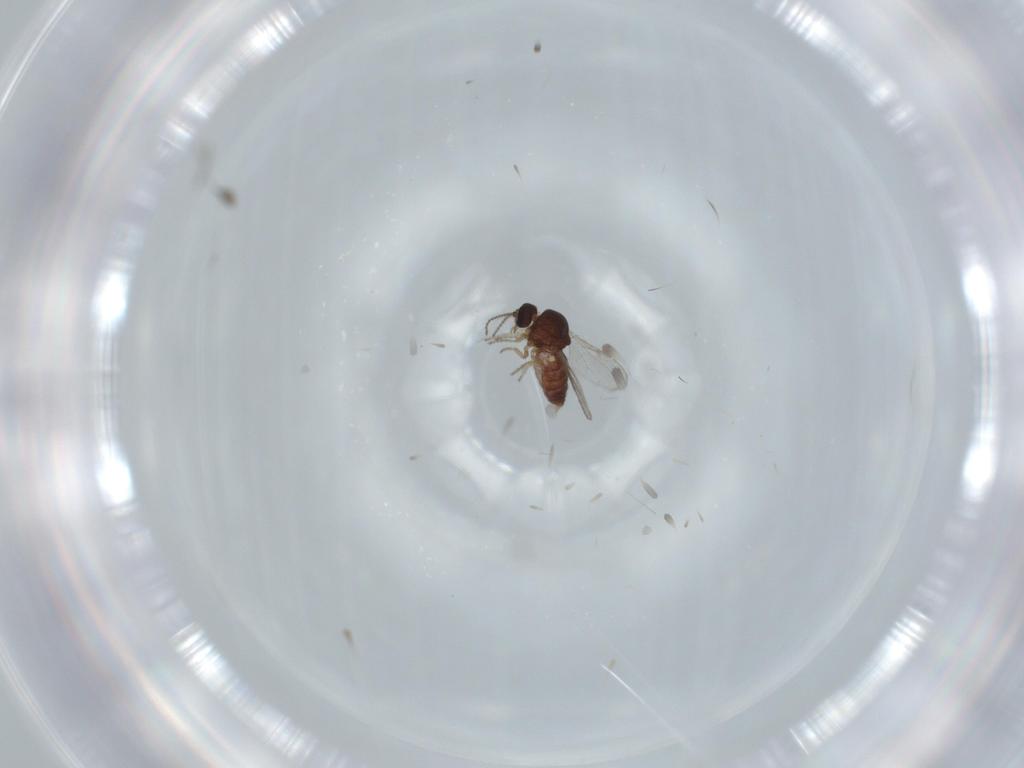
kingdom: Animalia
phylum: Arthropoda
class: Insecta
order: Diptera
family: Ceratopogonidae
